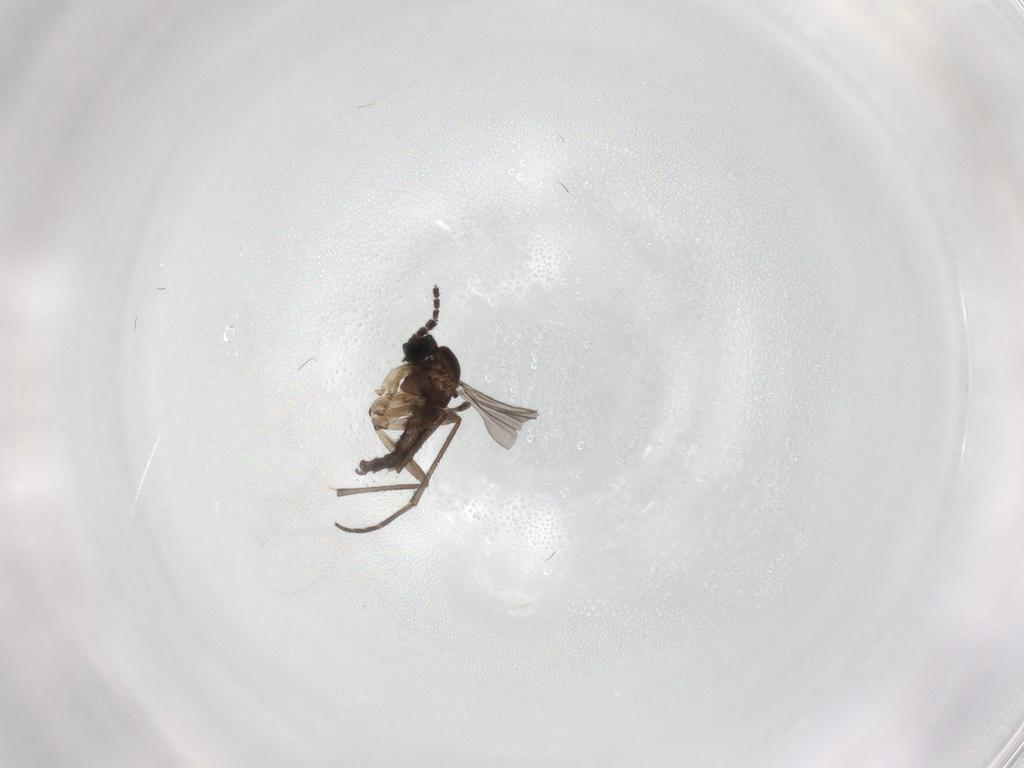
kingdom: Animalia
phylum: Arthropoda
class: Insecta
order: Diptera
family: Sciaridae
